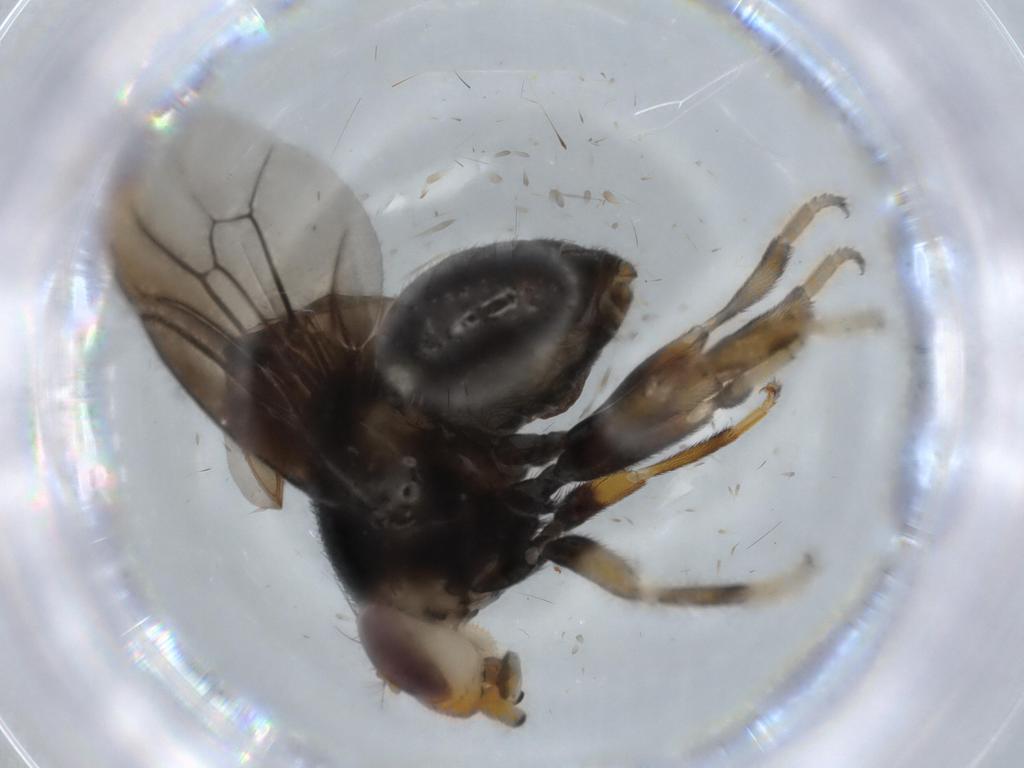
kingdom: Animalia
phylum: Arthropoda
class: Insecta
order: Diptera
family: Ulidiidae
